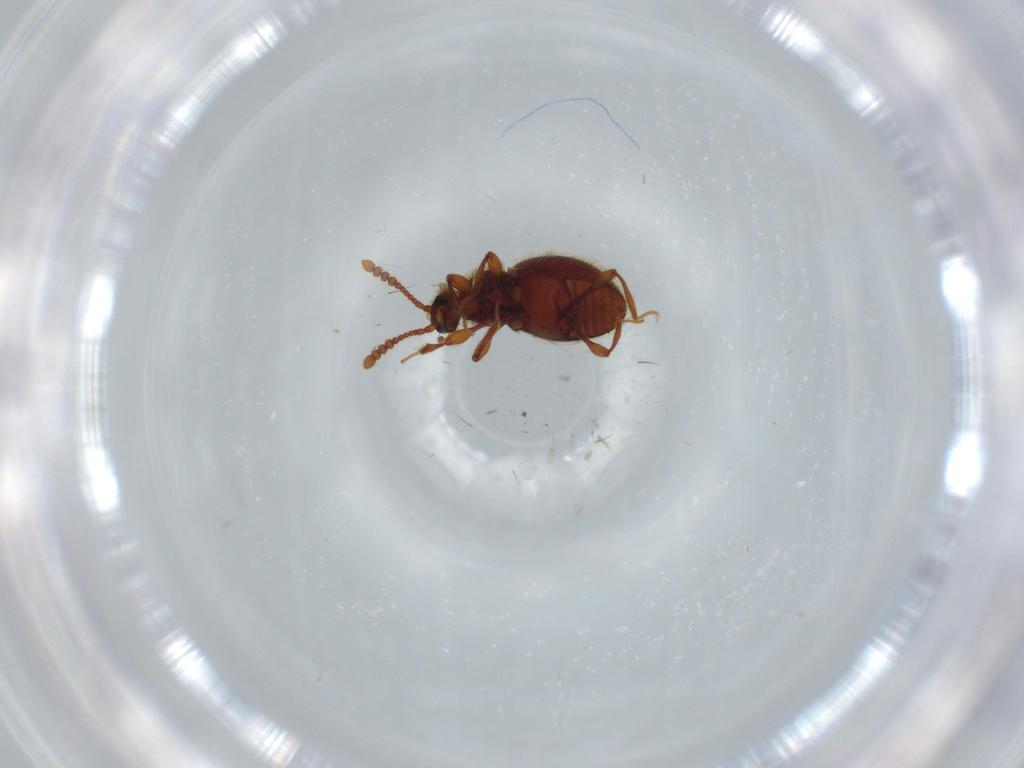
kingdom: Animalia
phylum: Arthropoda
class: Insecta
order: Coleoptera
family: Staphylinidae
